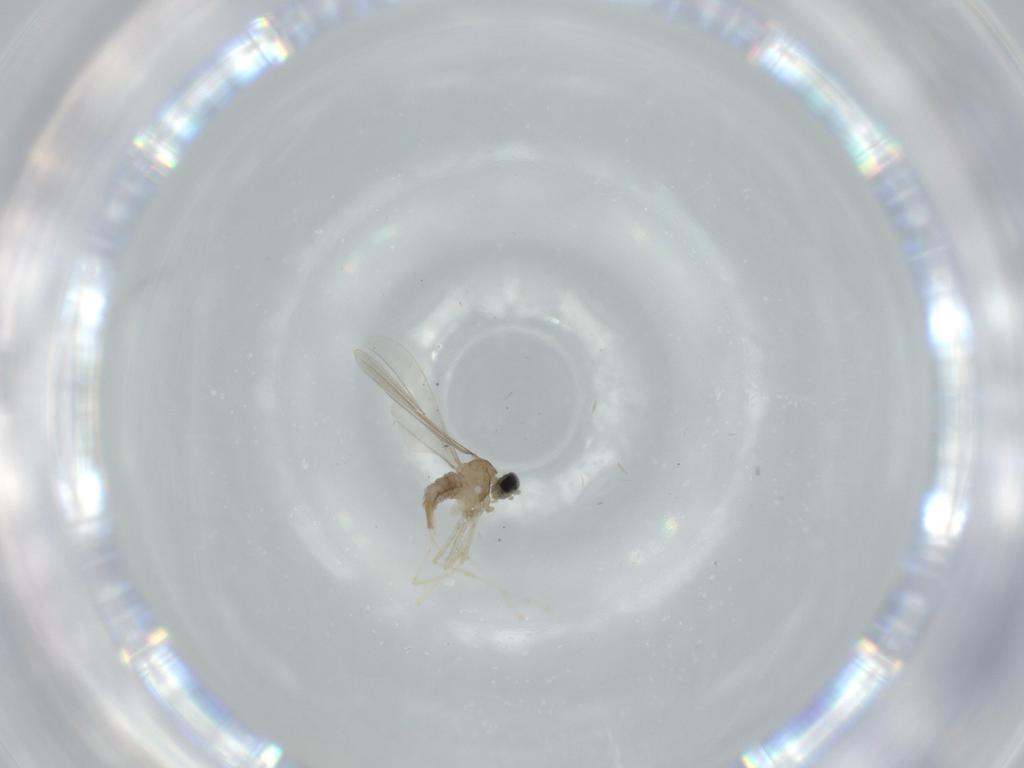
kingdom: Animalia
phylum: Arthropoda
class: Insecta
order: Diptera
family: Cecidomyiidae
